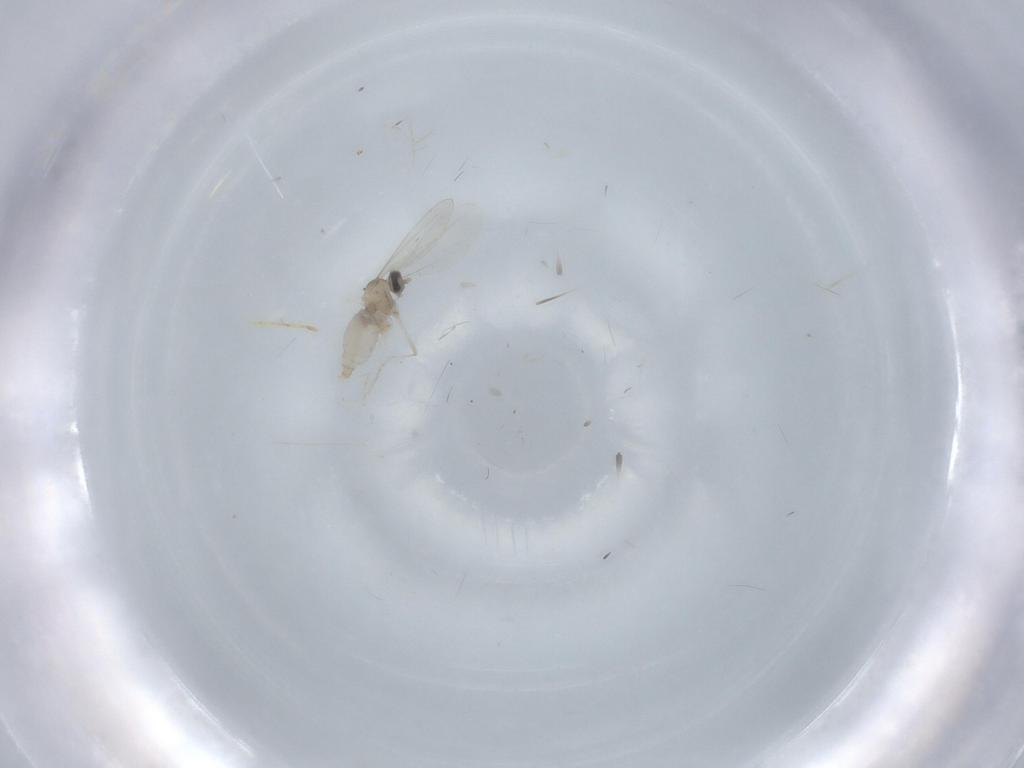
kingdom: Animalia
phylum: Arthropoda
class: Insecta
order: Diptera
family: Cecidomyiidae
